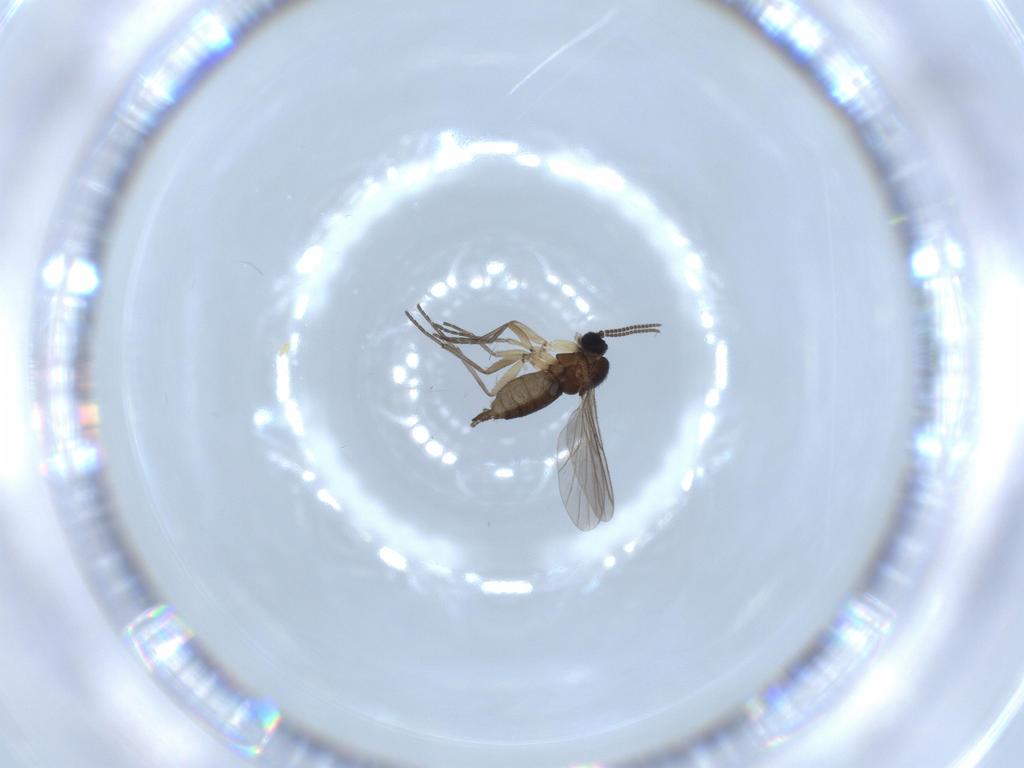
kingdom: Animalia
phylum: Arthropoda
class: Insecta
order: Diptera
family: Sciaridae
